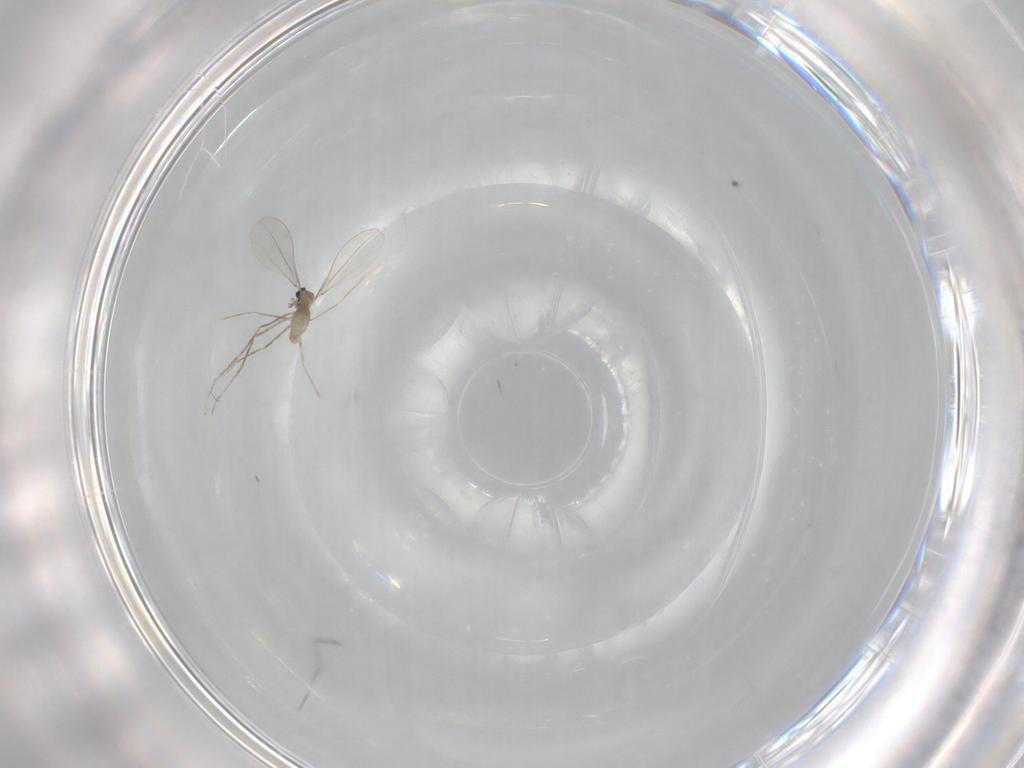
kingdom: Animalia
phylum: Arthropoda
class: Insecta
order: Diptera
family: Cecidomyiidae
